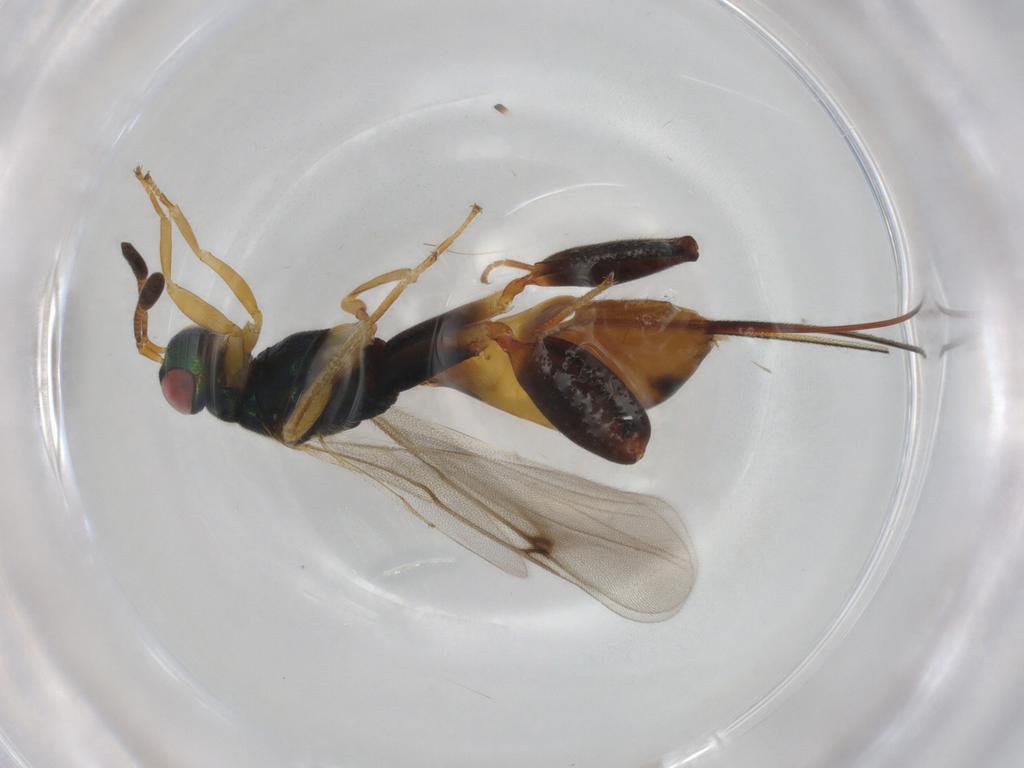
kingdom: Animalia
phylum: Arthropoda
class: Insecta
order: Hymenoptera
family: Torymidae
